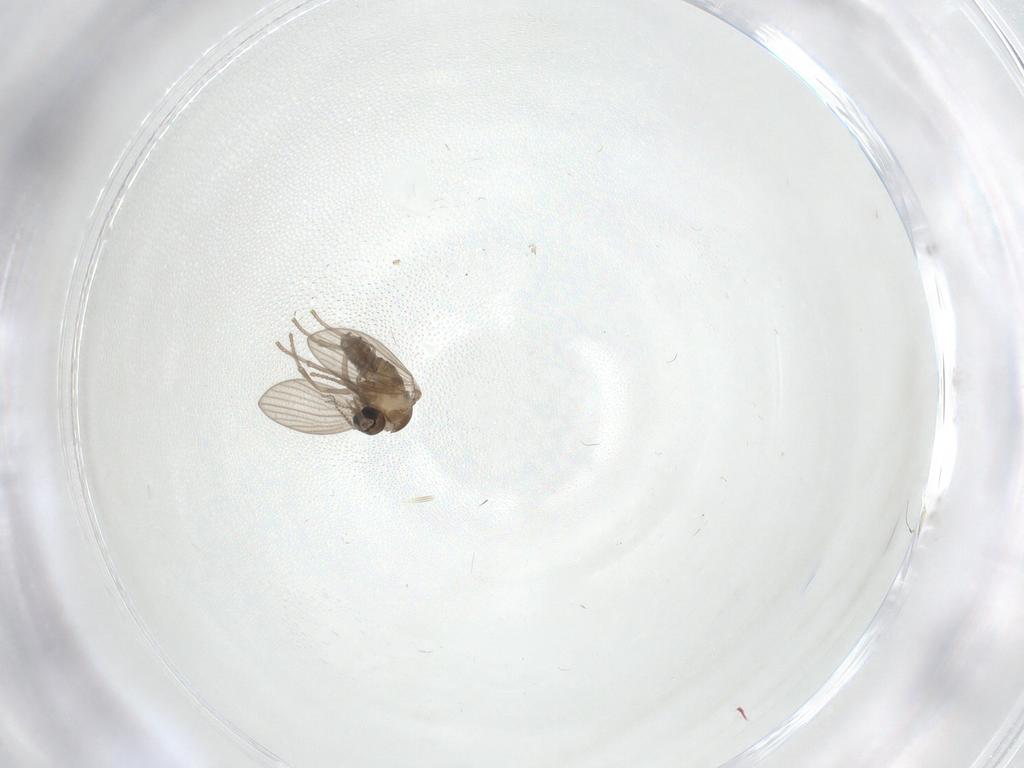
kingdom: Animalia
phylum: Arthropoda
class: Insecta
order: Diptera
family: Psychodidae
